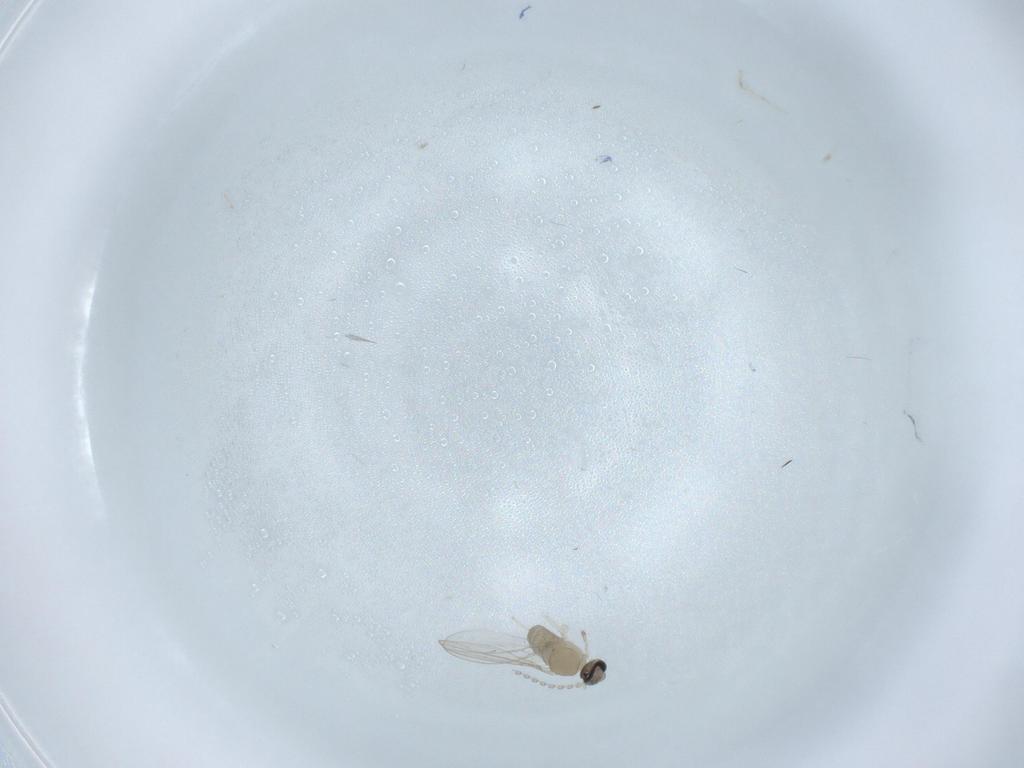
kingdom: Animalia
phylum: Arthropoda
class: Insecta
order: Diptera
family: Cecidomyiidae
